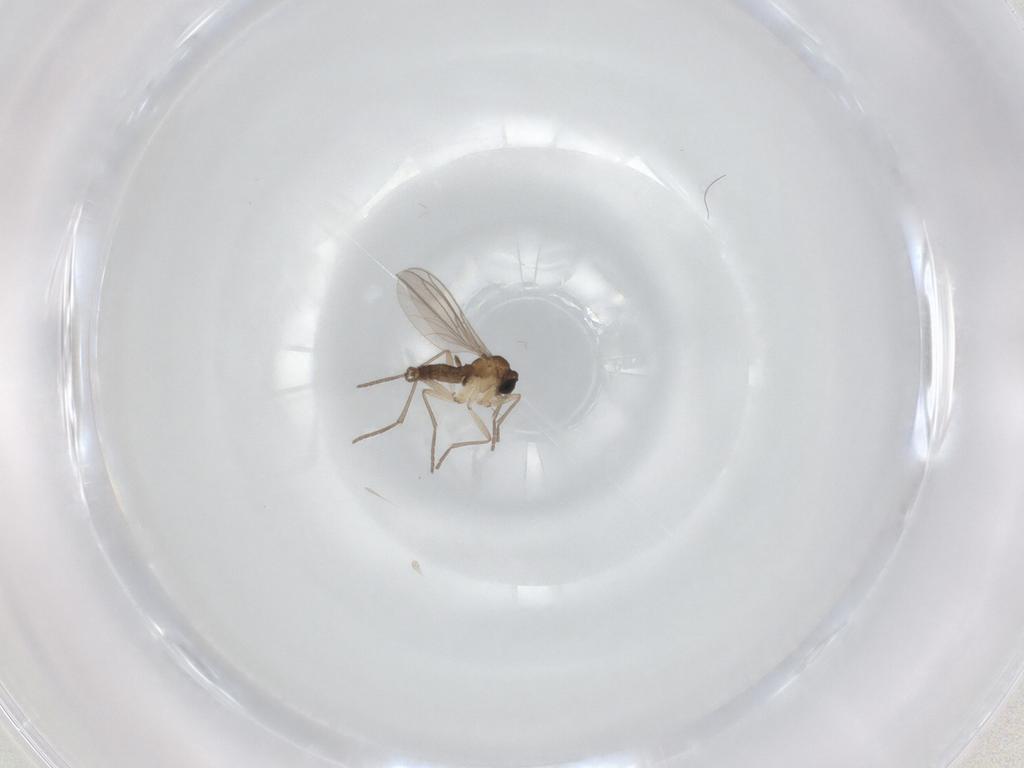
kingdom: Animalia
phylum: Arthropoda
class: Insecta
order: Diptera
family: Sciaridae
